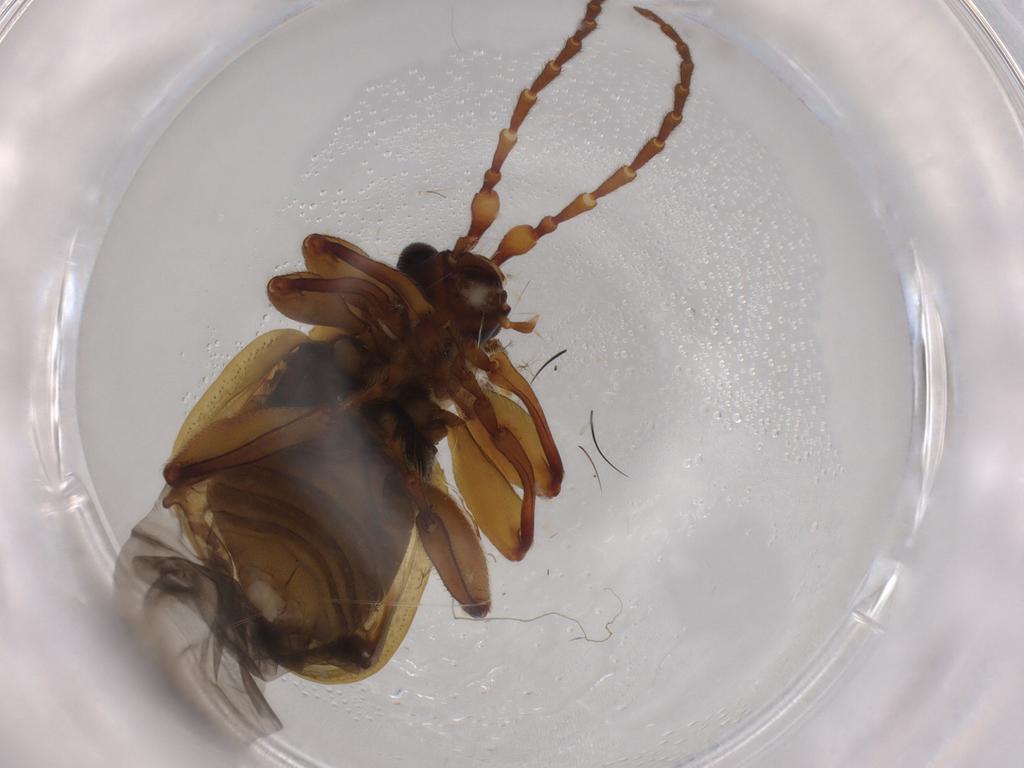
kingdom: Animalia
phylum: Arthropoda
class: Insecta
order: Coleoptera
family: Chrysomelidae
